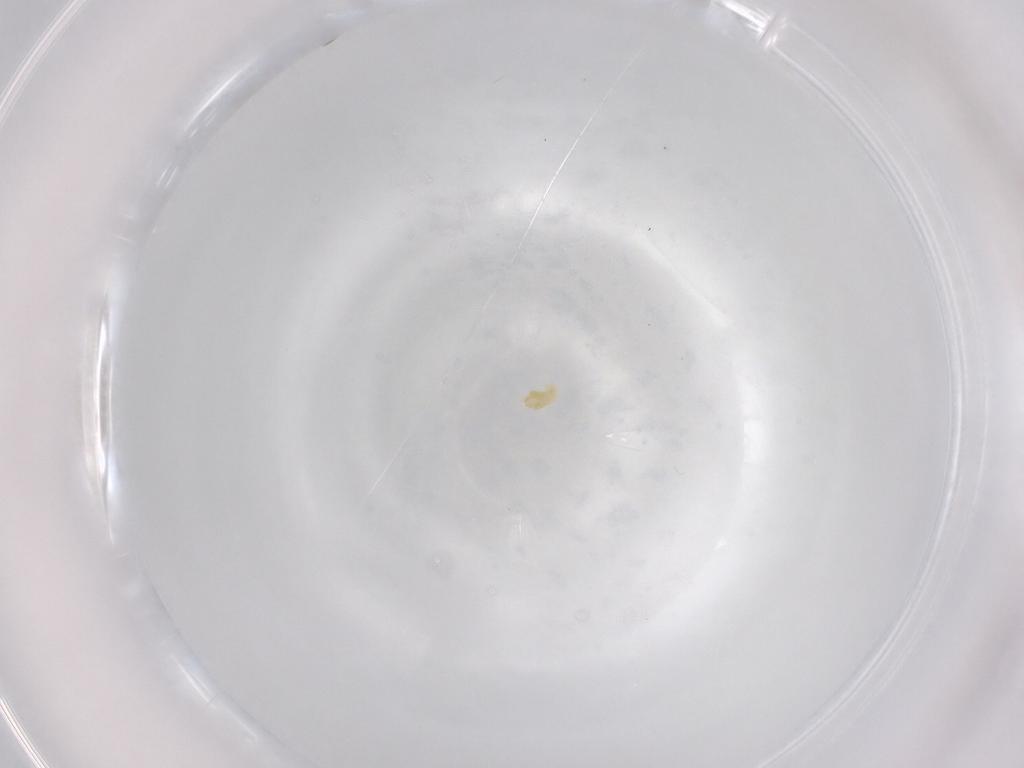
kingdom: Animalia
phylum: Arthropoda
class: Arachnida
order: Trombidiformes
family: Eupodidae
